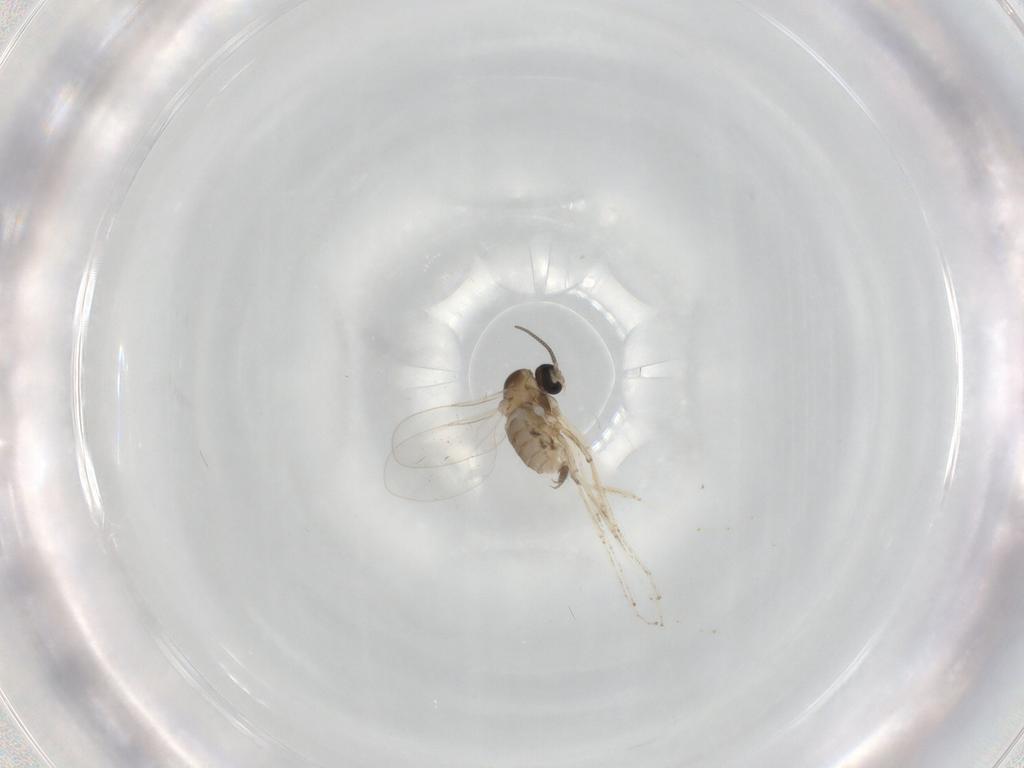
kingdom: Animalia
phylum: Arthropoda
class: Insecta
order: Diptera
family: Cecidomyiidae
